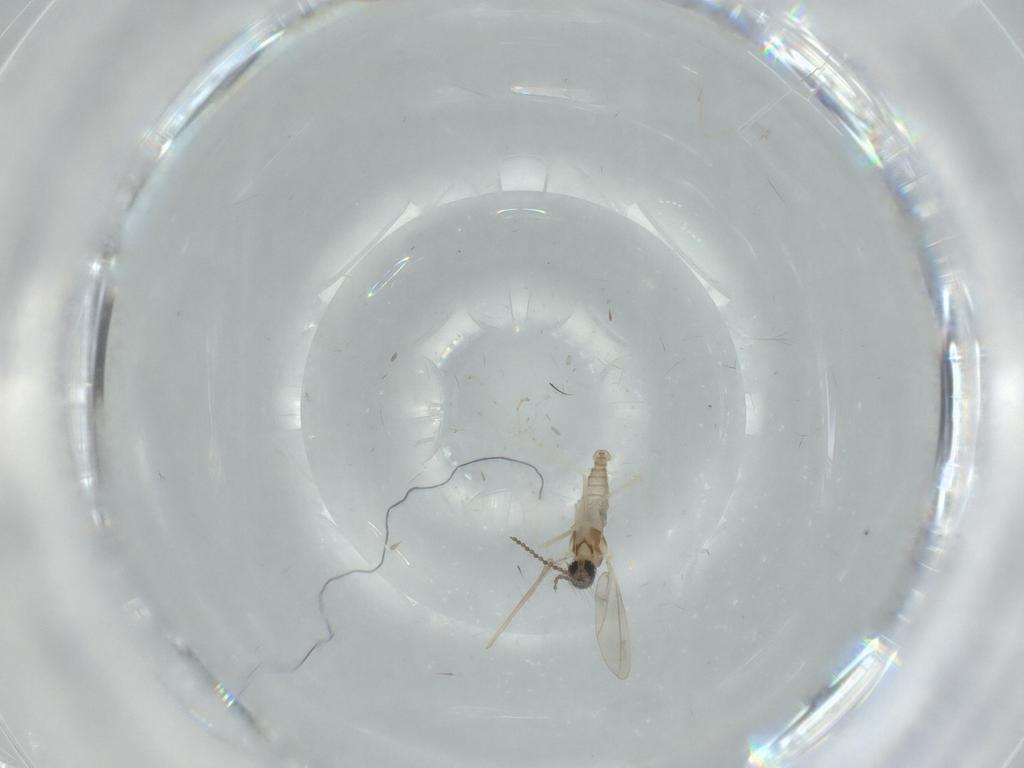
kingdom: Animalia
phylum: Arthropoda
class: Insecta
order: Diptera
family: Cecidomyiidae
